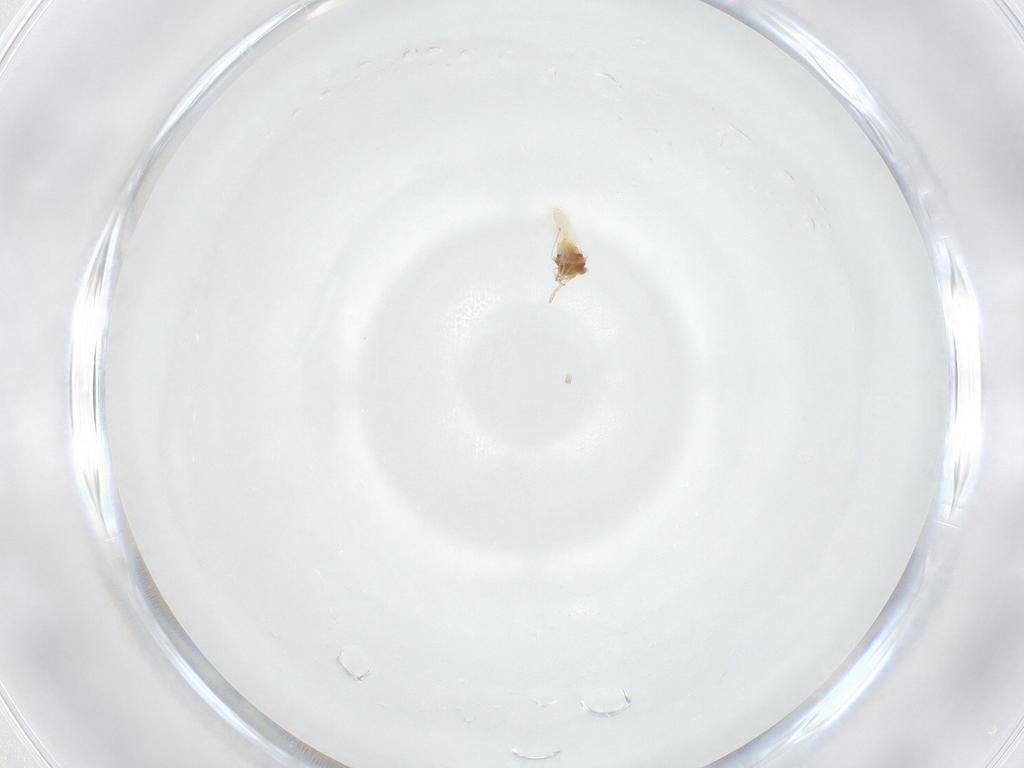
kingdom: Animalia
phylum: Arthropoda
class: Insecta
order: Hymenoptera
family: Aphelinidae
